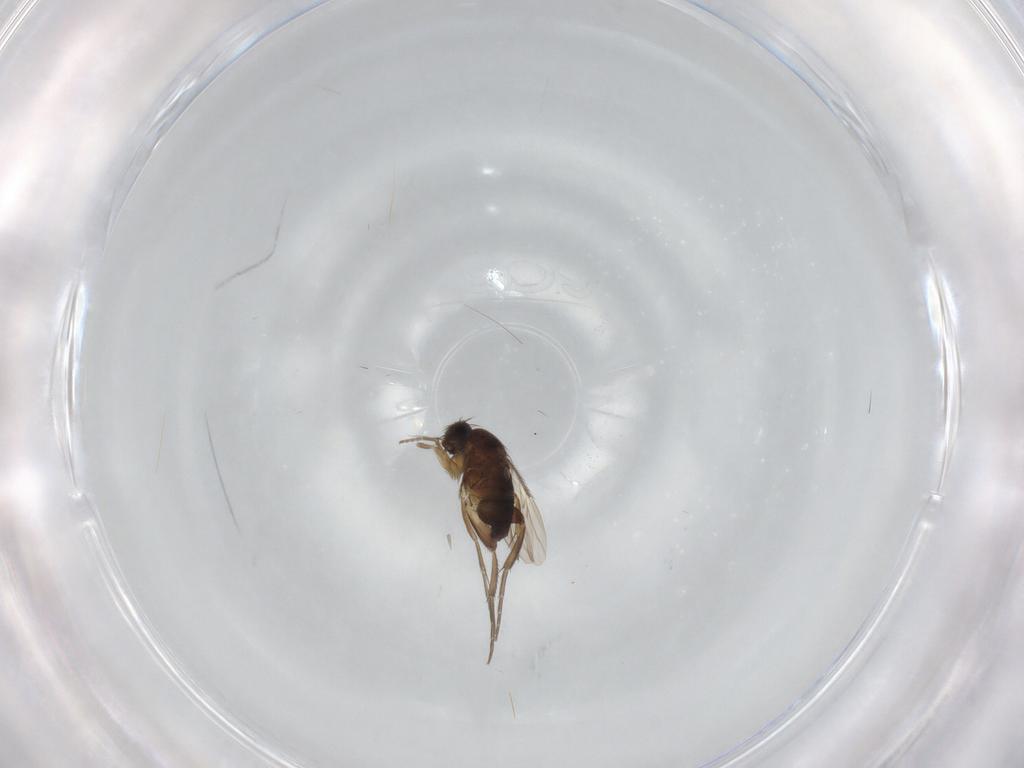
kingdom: Animalia
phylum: Arthropoda
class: Insecta
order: Diptera
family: Phoridae
